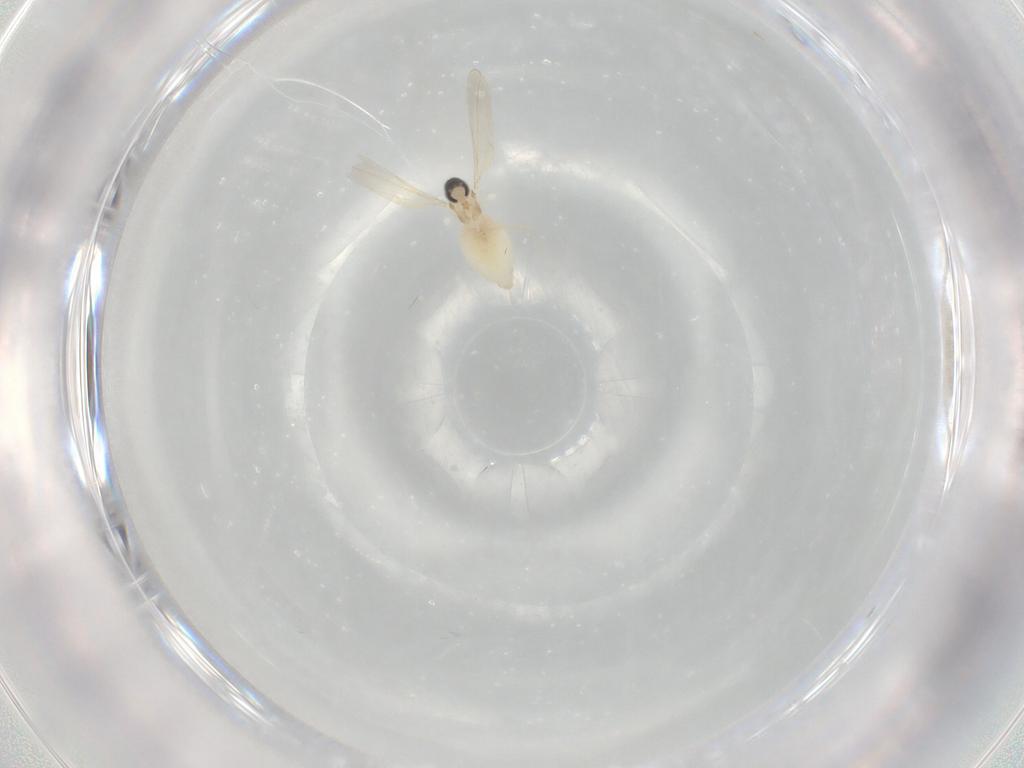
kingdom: Animalia
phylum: Arthropoda
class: Insecta
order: Diptera
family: Cecidomyiidae
